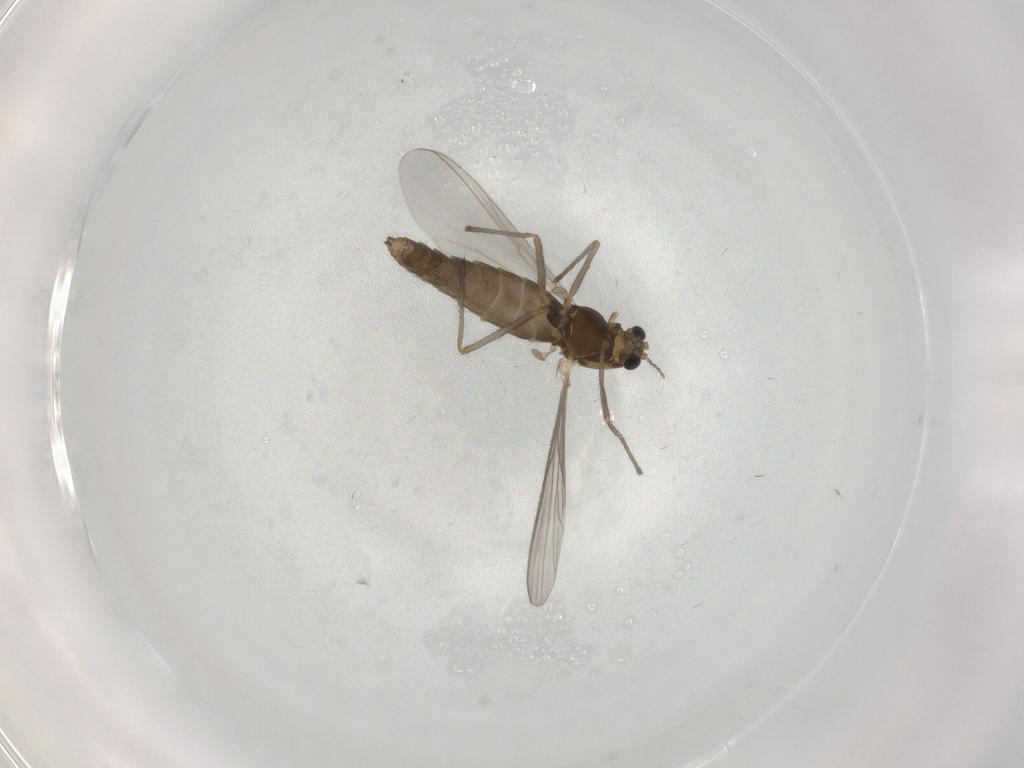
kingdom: Animalia
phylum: Arthropoda
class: Insecta
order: Diptera
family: Chironomidae
